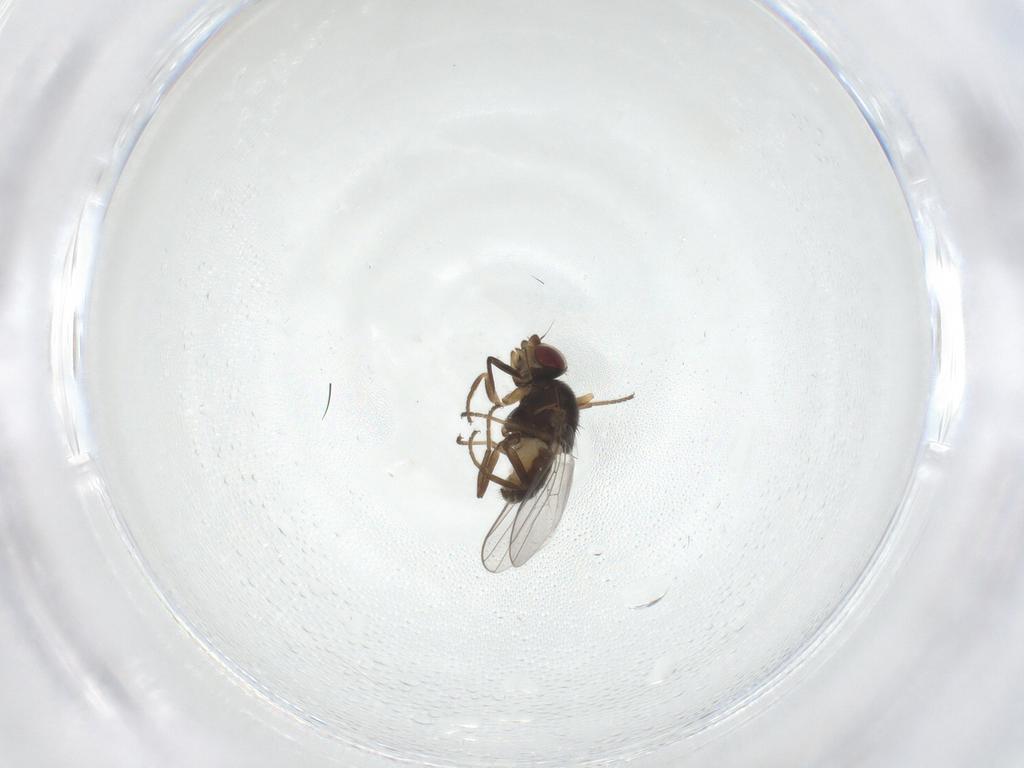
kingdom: Animalia
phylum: Arthropoda
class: Insecta
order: Diptera
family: Chloropidae
